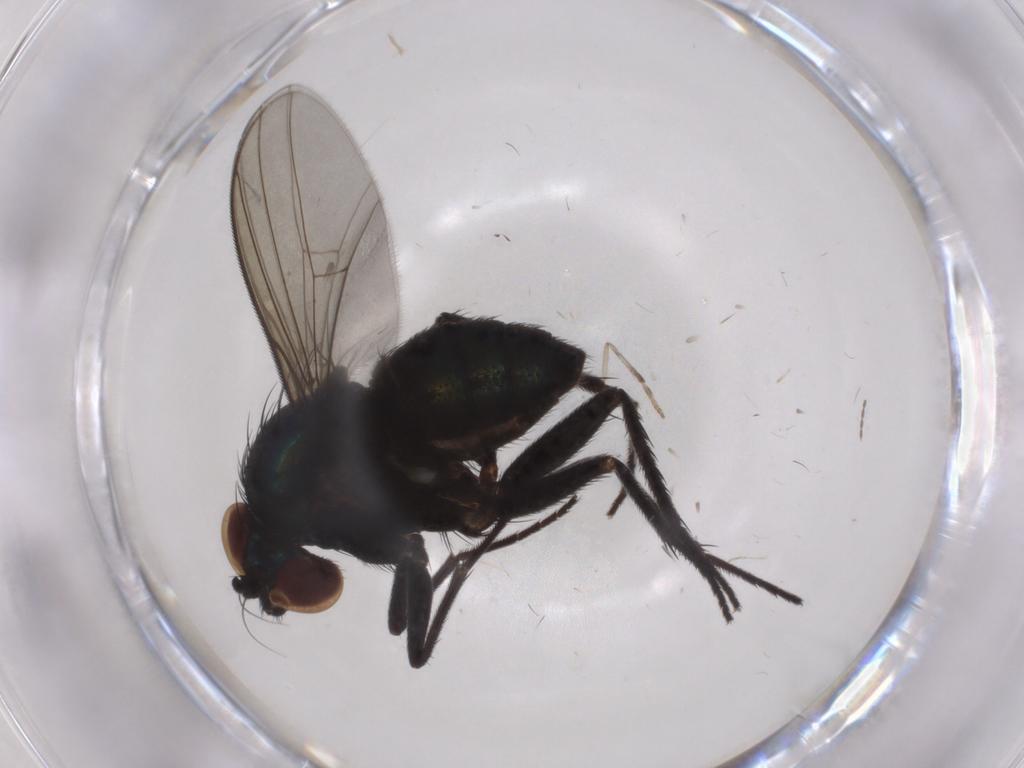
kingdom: Animalia
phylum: Arthropoda
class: Insecta
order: Diptera
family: Dolichopodidae
